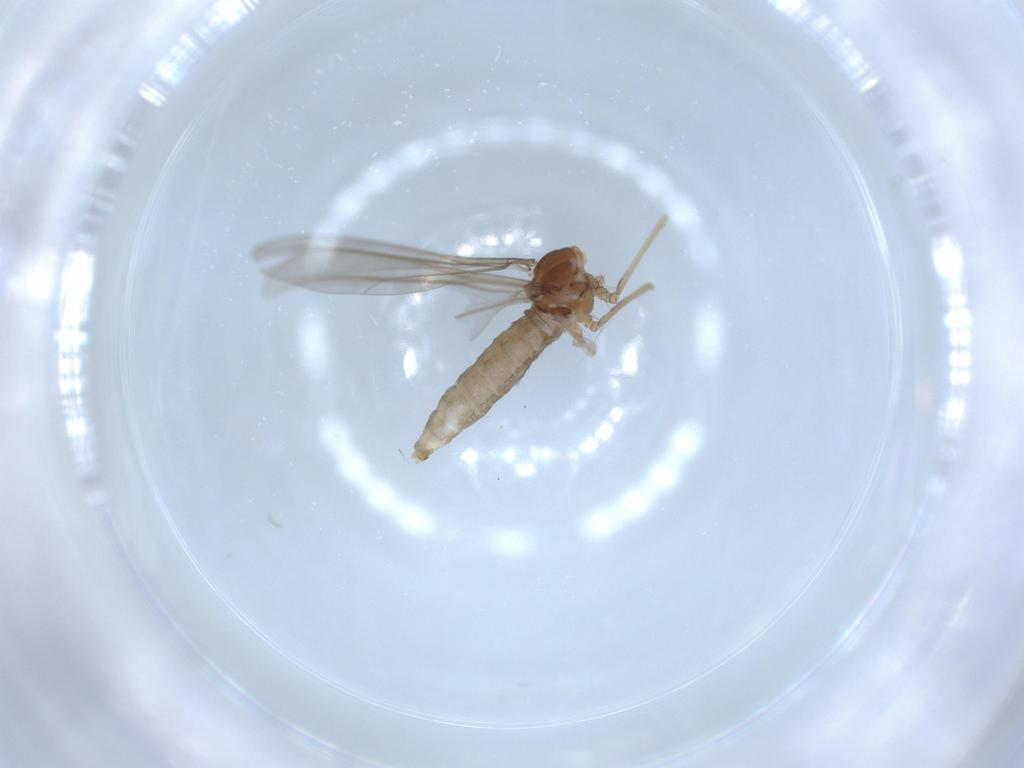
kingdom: Animalia
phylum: Arthropoda
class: Insecta
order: Diptera
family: Cecidomyiidae
